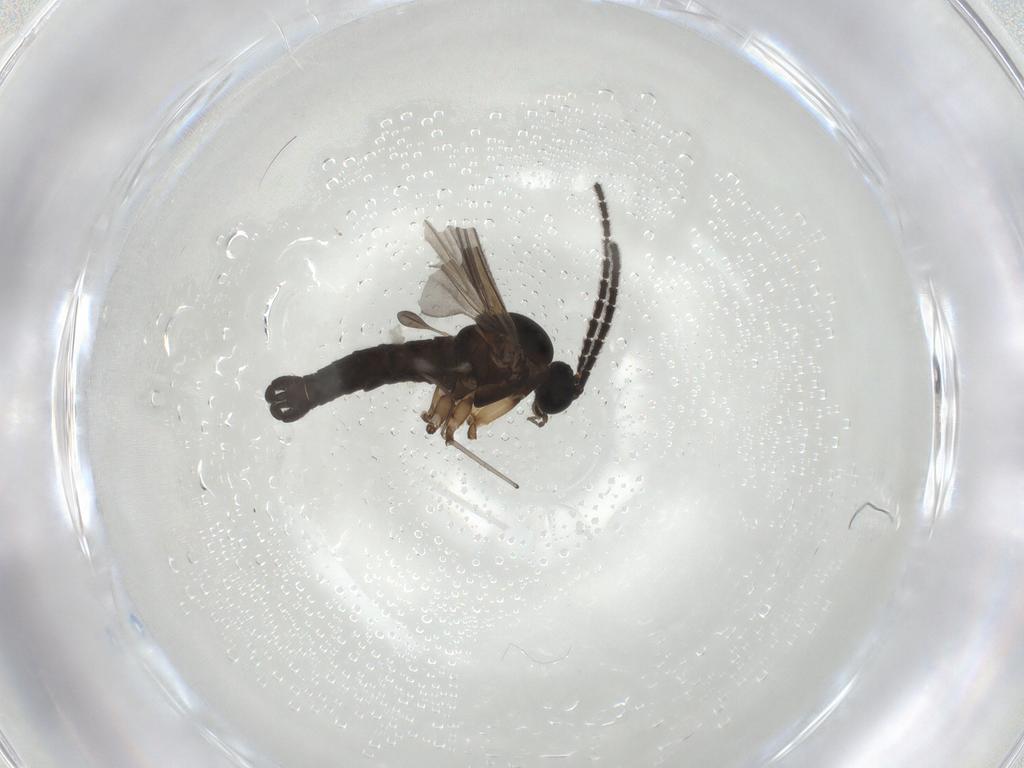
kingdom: Animalia
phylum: Arthropoda
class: Insecta
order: Diptera
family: Sciaridae
